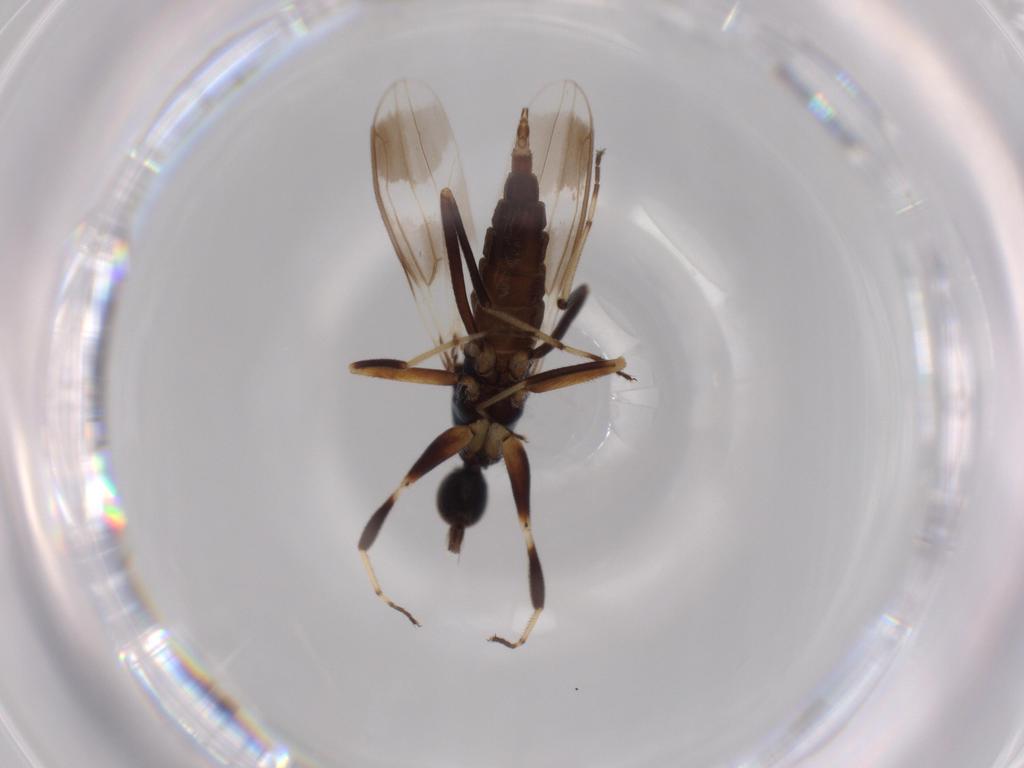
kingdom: Animalia
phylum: Arthropoda
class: Insecta
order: Diptera
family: Hybotidae
